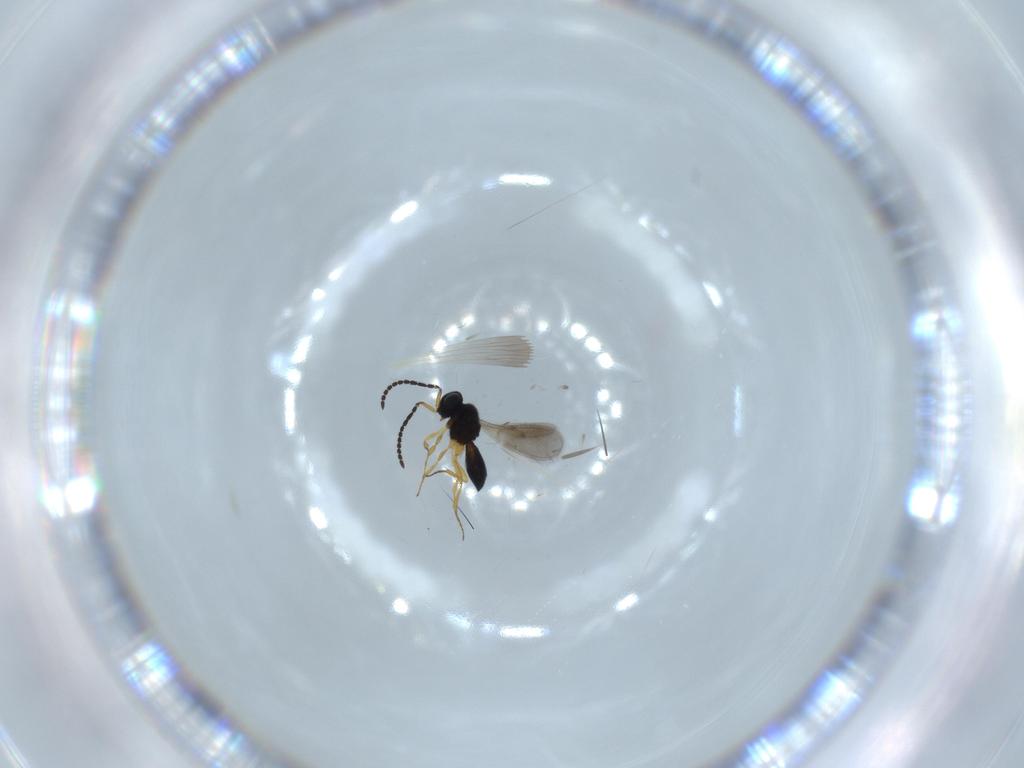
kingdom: Animalia
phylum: Arthropoda
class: Insecta
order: Hymenoptera
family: Scelionidae
